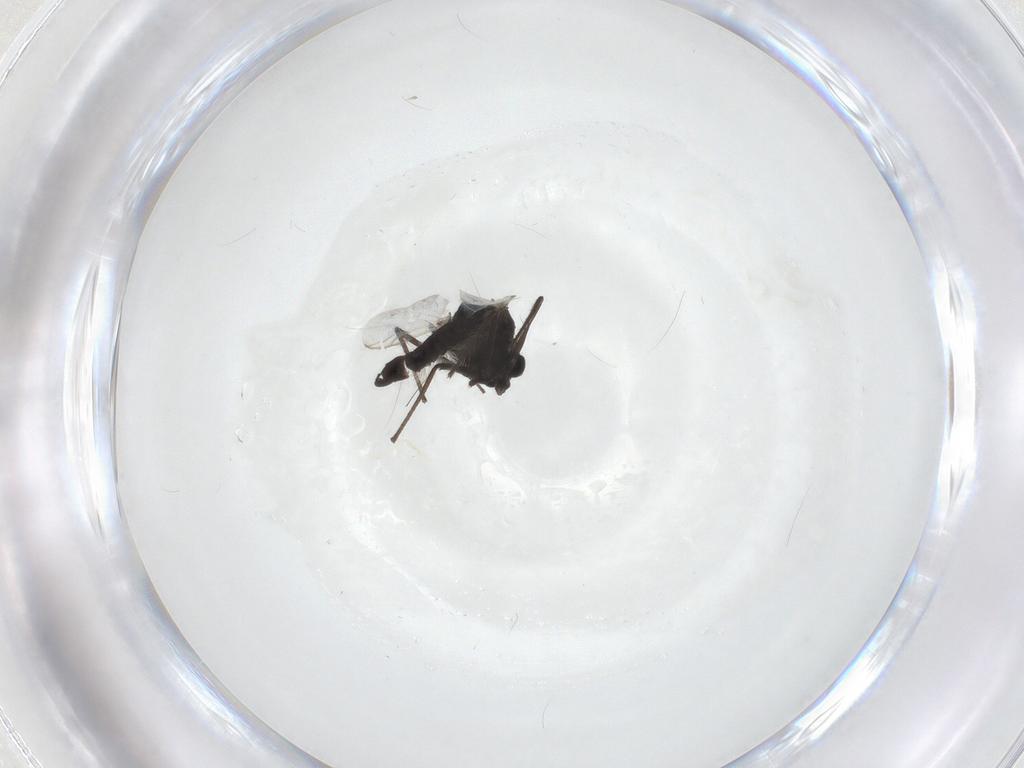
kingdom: Animalia
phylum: Arthropoda
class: Insecta
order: Diptera
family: Chironomidae
